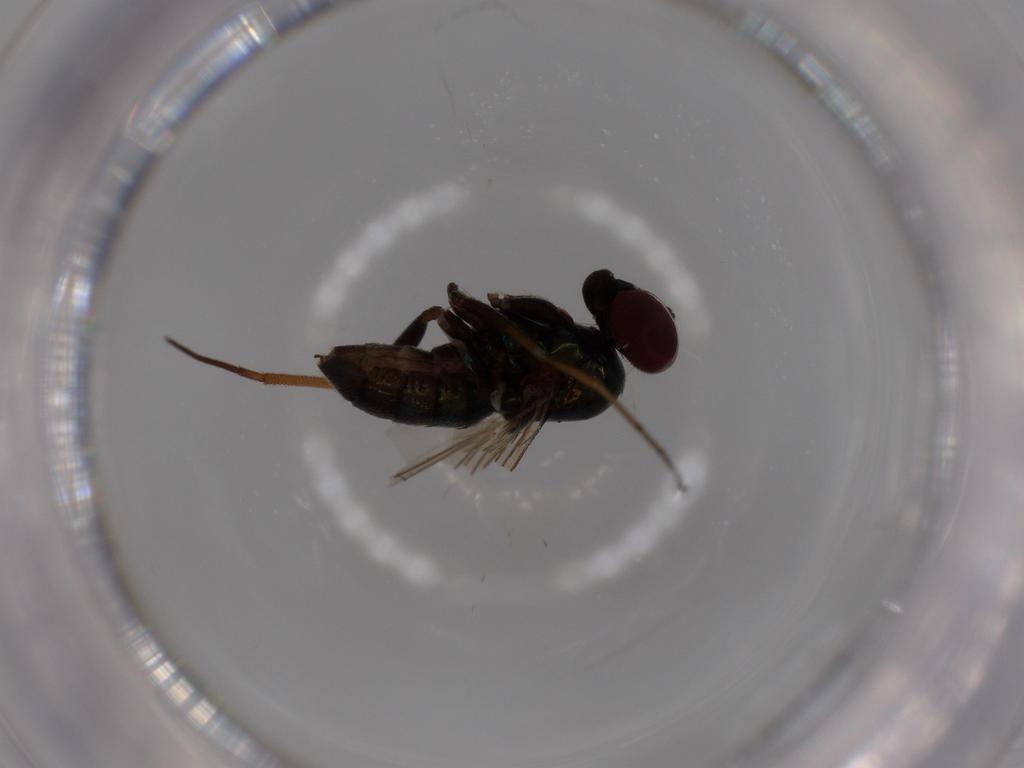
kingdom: Animalia
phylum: Arthropoda
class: Insecta
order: Diptera
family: Dolichopodidae
